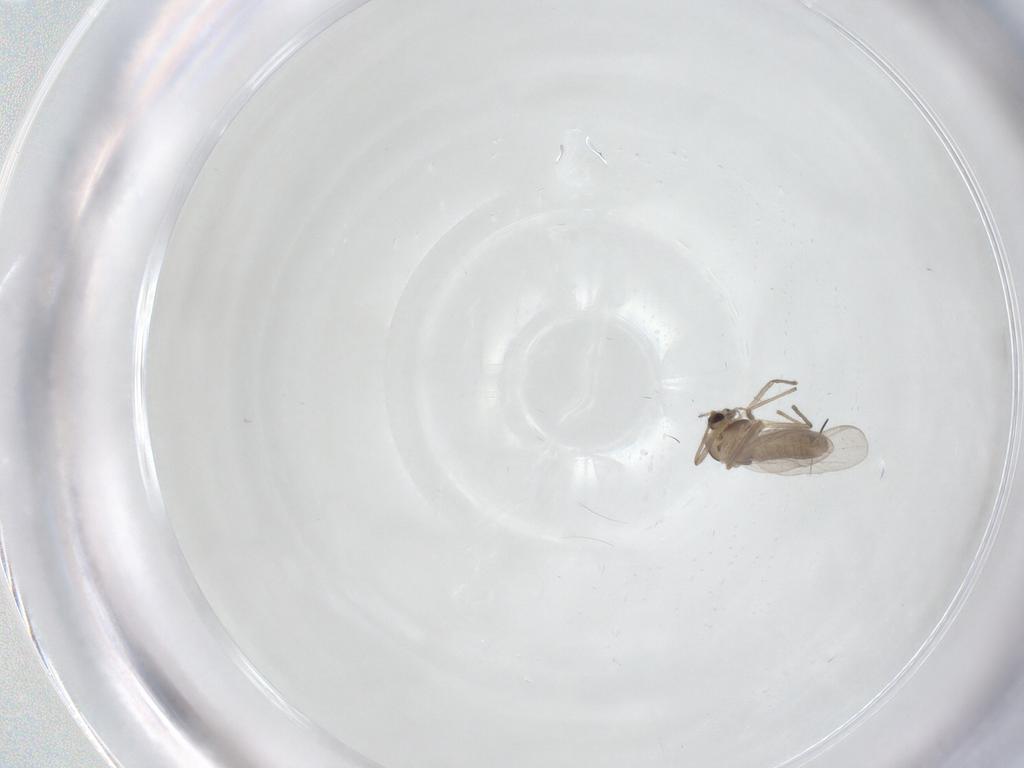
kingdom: Animalia
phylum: Arthropoda
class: Insecta
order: Diptera
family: Chironomidae
